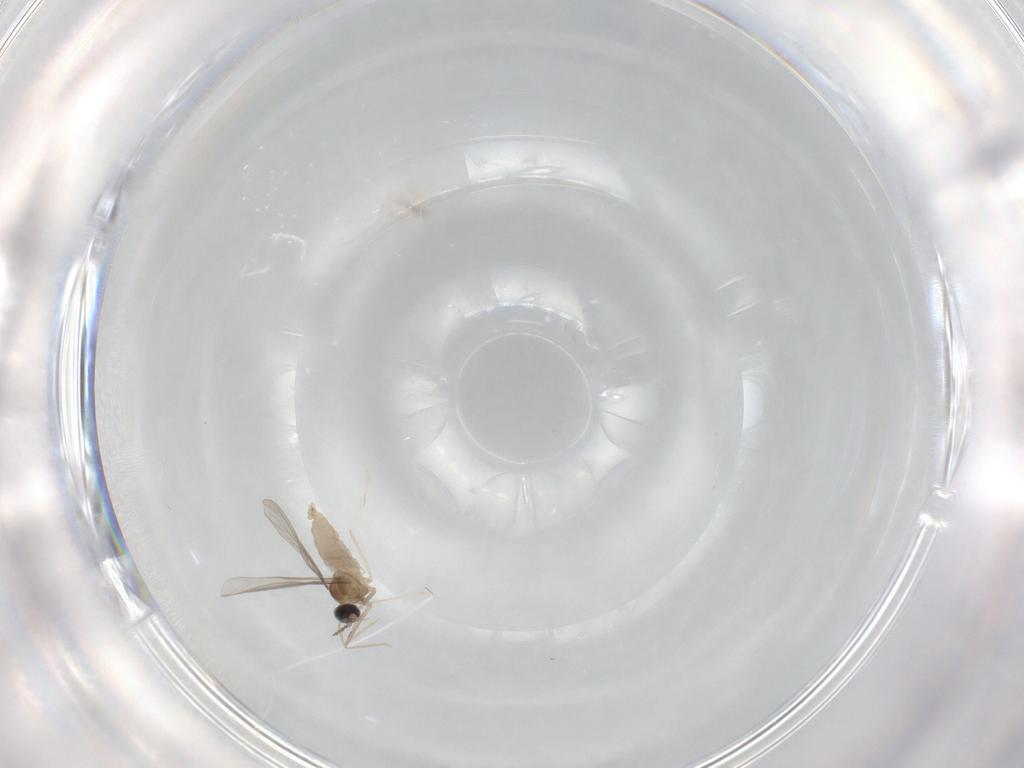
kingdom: Animalia
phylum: Arthropoda
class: Insecta
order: Diptera
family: Cecidomyiidae
